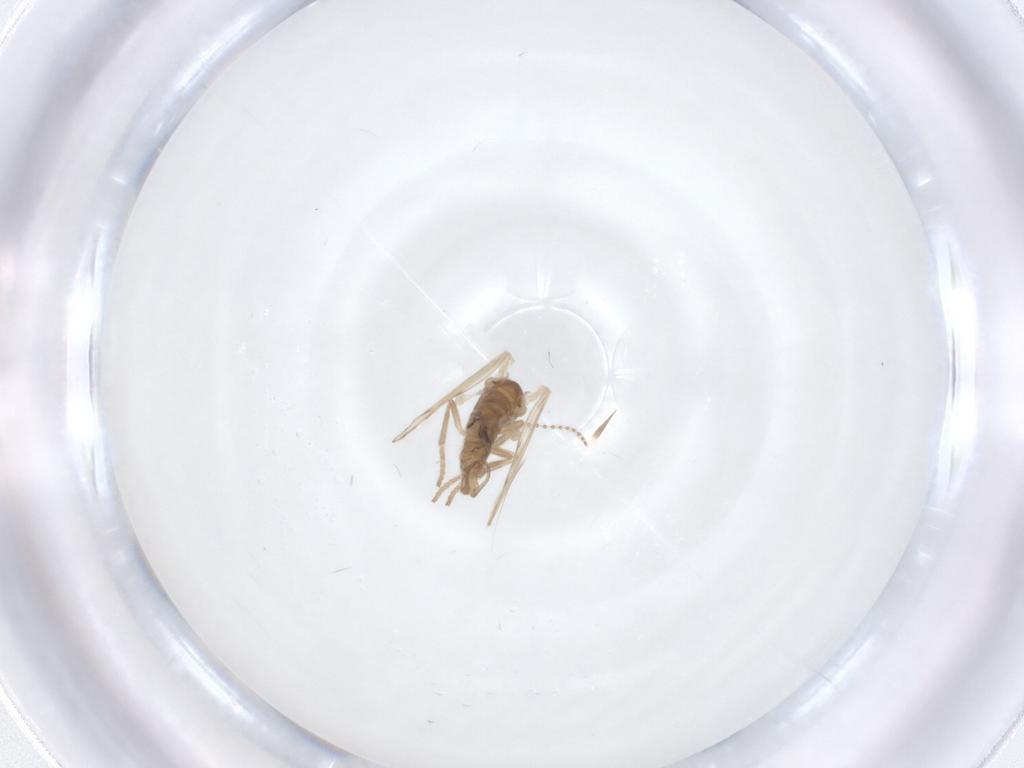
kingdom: Animalia
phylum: Arthropoda
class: Insecta
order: Diptera
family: Psychodidae
